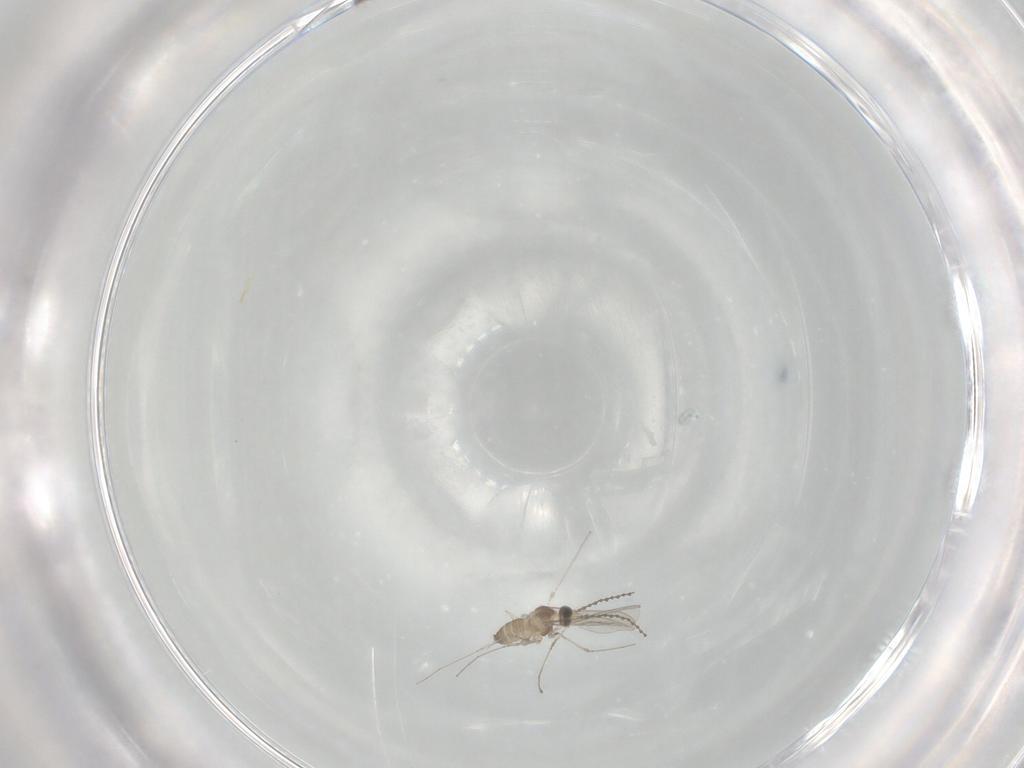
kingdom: Animalia
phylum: Arthropoda
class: Insecta
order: Diptera
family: Cecidomyiidae
